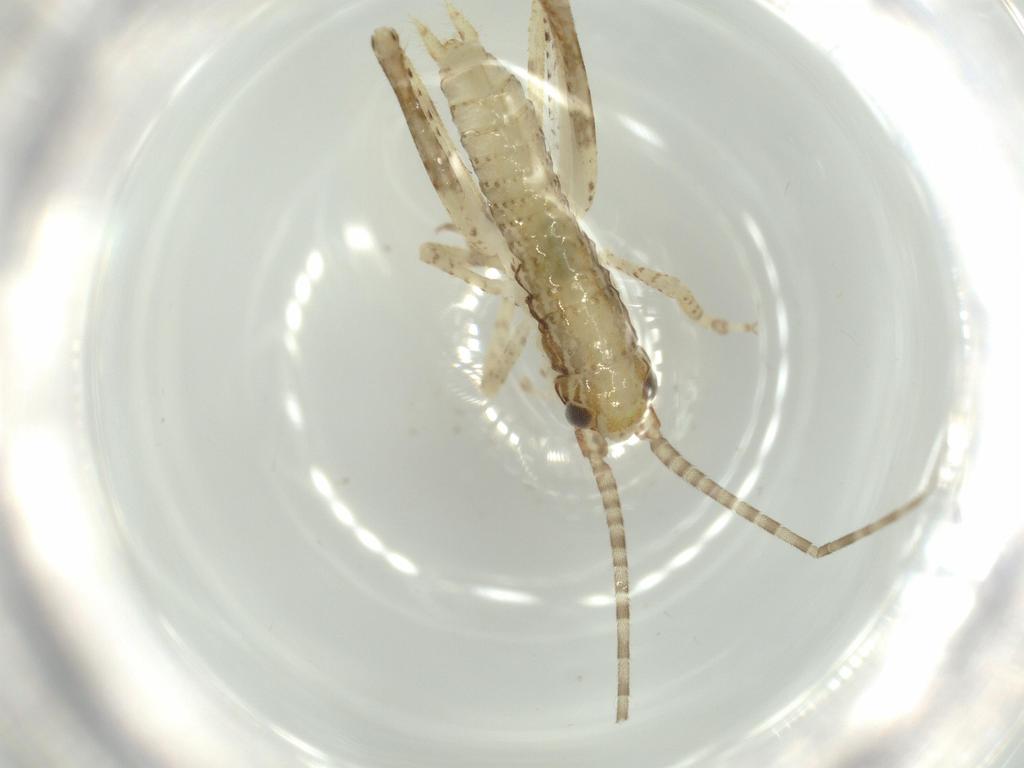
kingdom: Animalia
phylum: Arthropoda
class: Insecta
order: Orthoptera
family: Gryllidae
